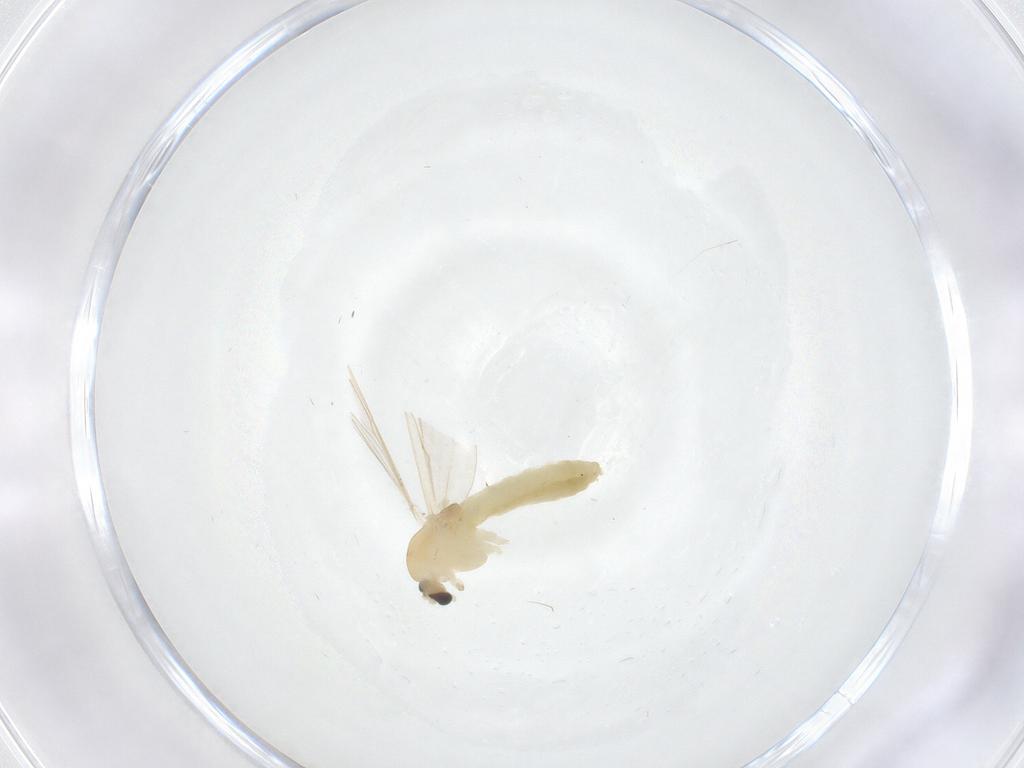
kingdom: Animalia
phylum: Arthropoda
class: Insecta
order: Diptera
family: Chironomidae
